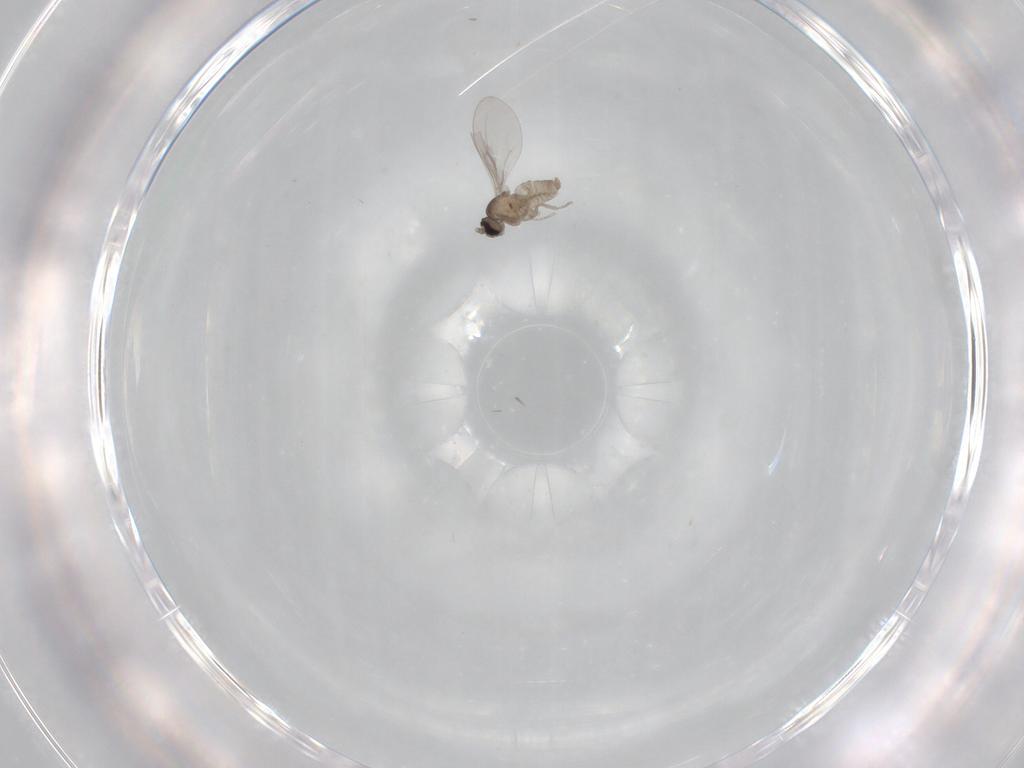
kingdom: Animalia
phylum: Arthropoda
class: Insecta
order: Diptera
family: Cecidomyiidae
